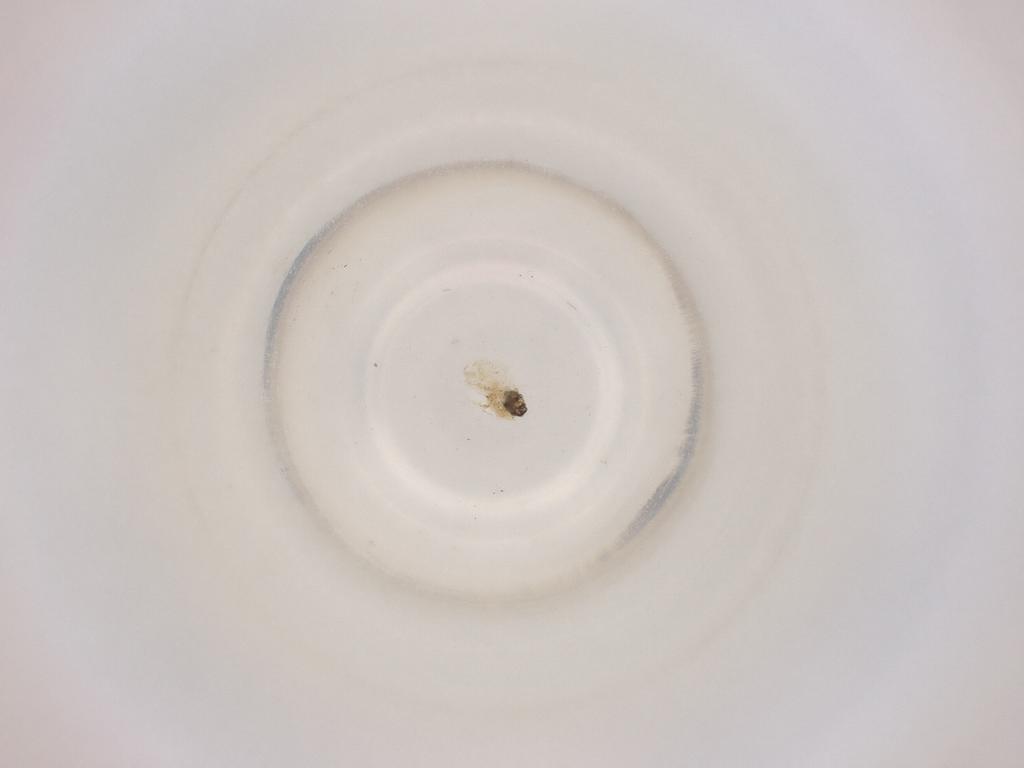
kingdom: Animalia
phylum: Arthropoda
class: Insecta
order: Diptera
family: Cecidomyiidae
